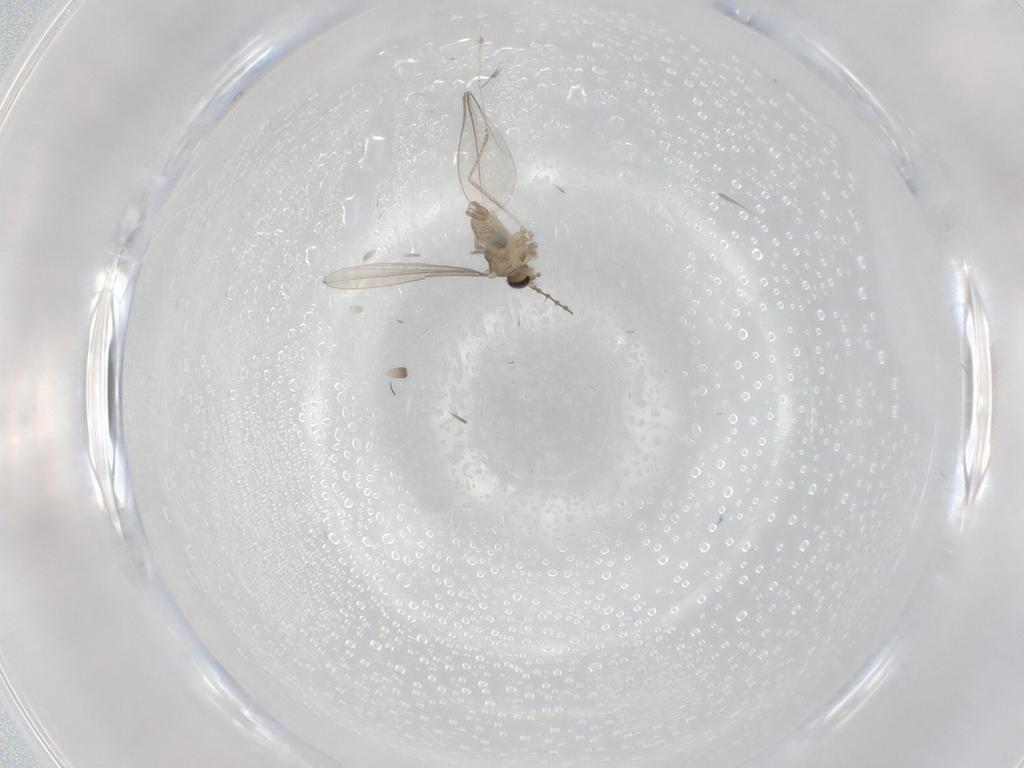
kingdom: Animalia
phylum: Arthropoda
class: Insecta
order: Diptera
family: Cecidomyiidae
